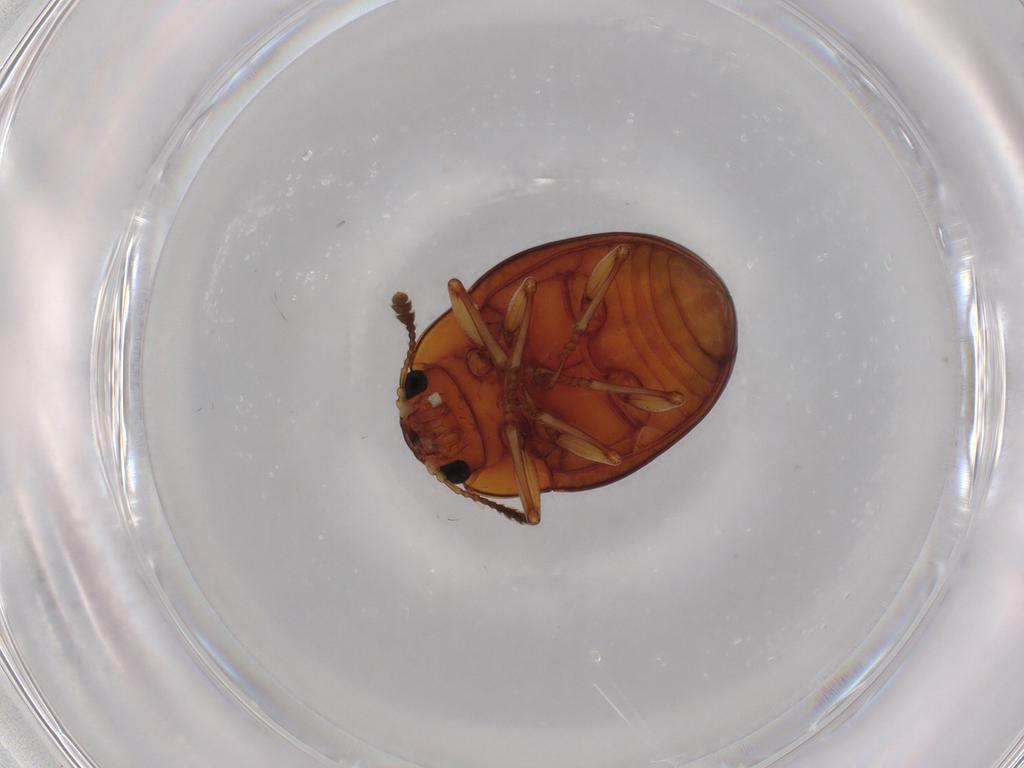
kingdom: Animalia
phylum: Arthropoda
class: Insecta
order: Coleoptera
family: Erotylidae
